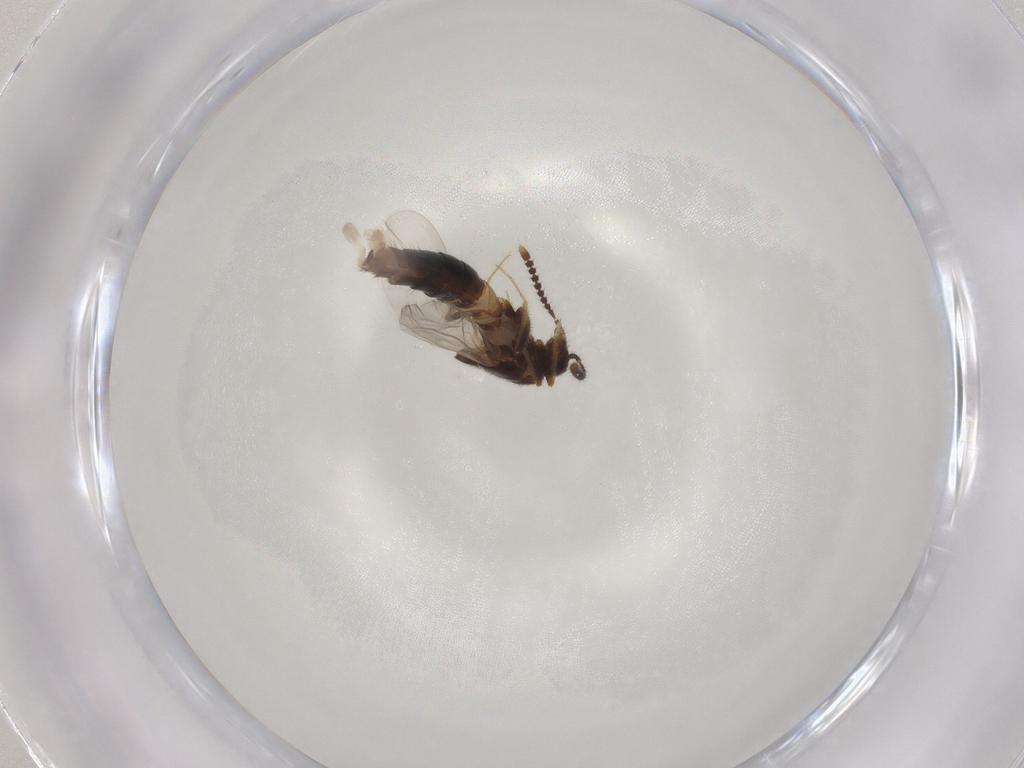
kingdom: Animalia
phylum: Arthropoda
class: Insecta
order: Coleoptera
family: Staphylinidae
